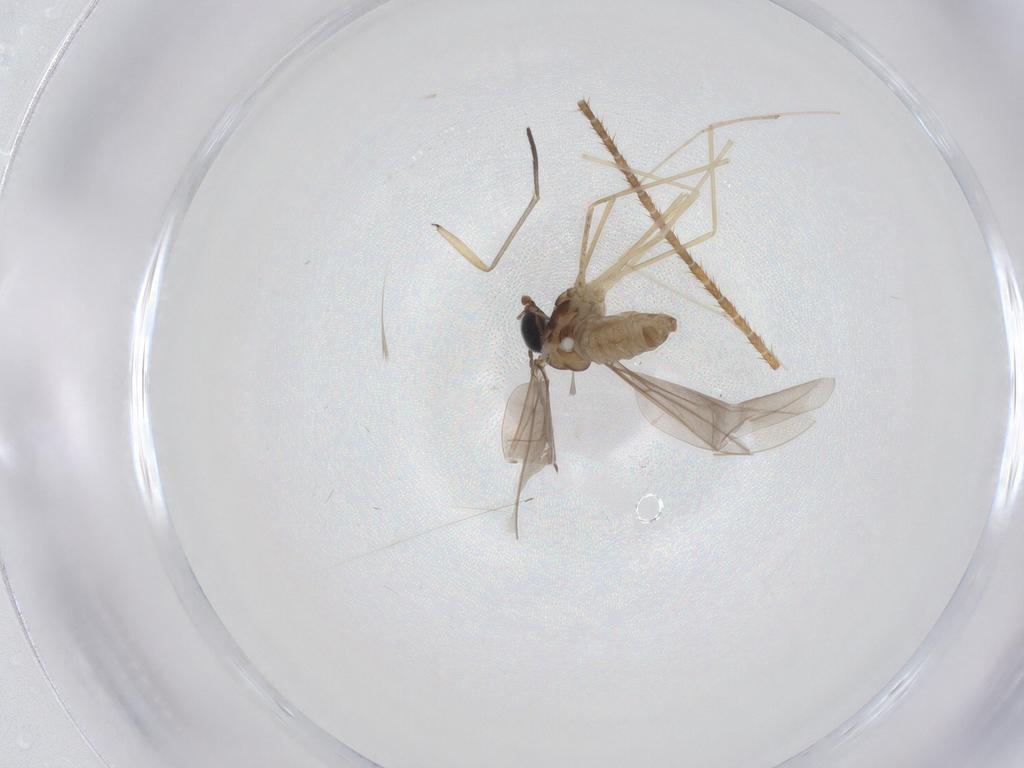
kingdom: Animalia
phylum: Arthropoda
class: Insecta
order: Diptera
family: Cecidomyiidae
